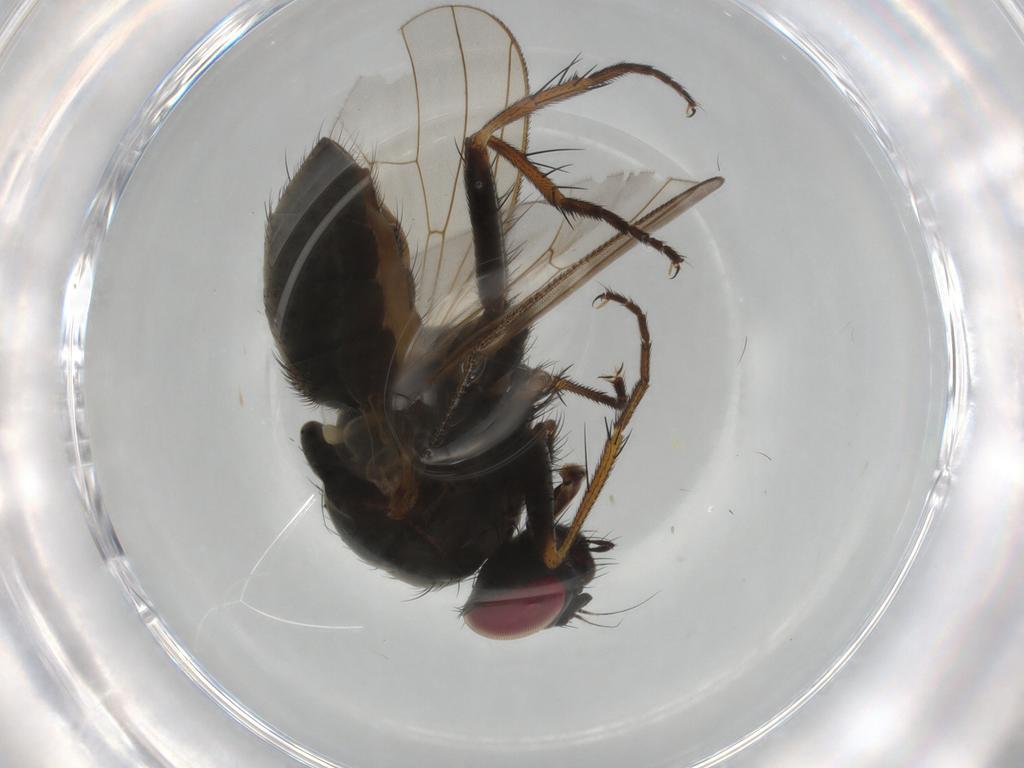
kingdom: Animalia
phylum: Arthropoda
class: Insecta
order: Diptera
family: Muscidae
